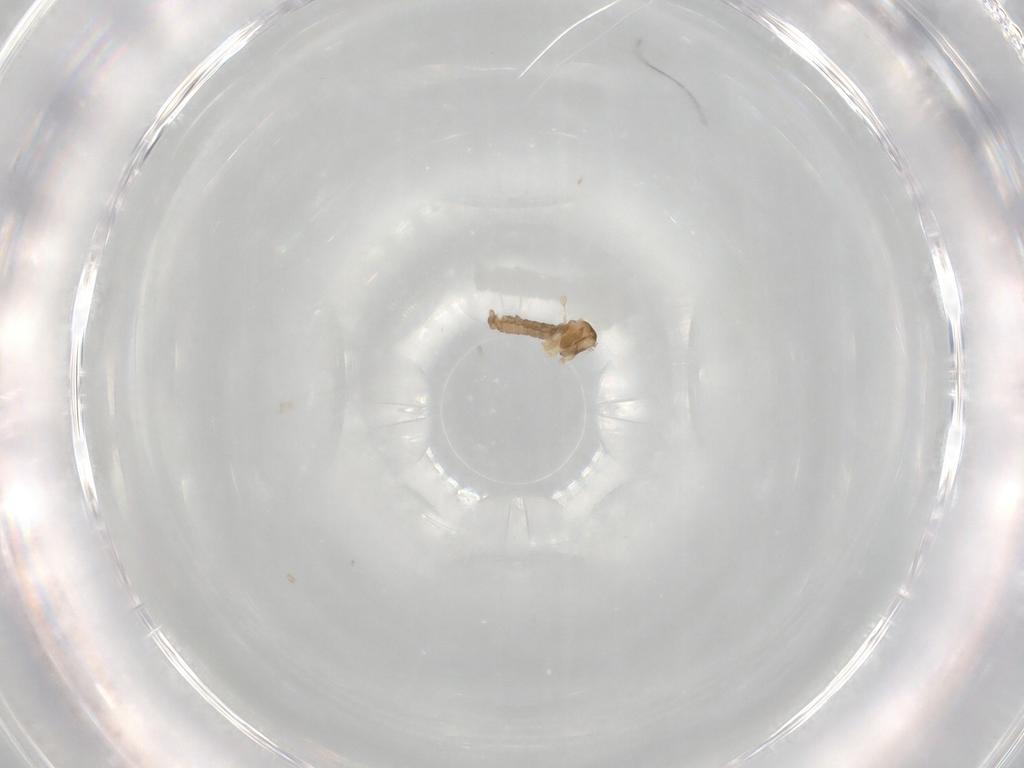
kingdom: Animalia
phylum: Arthropoda
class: Insecta
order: Diptera
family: Cecidomyiidae
